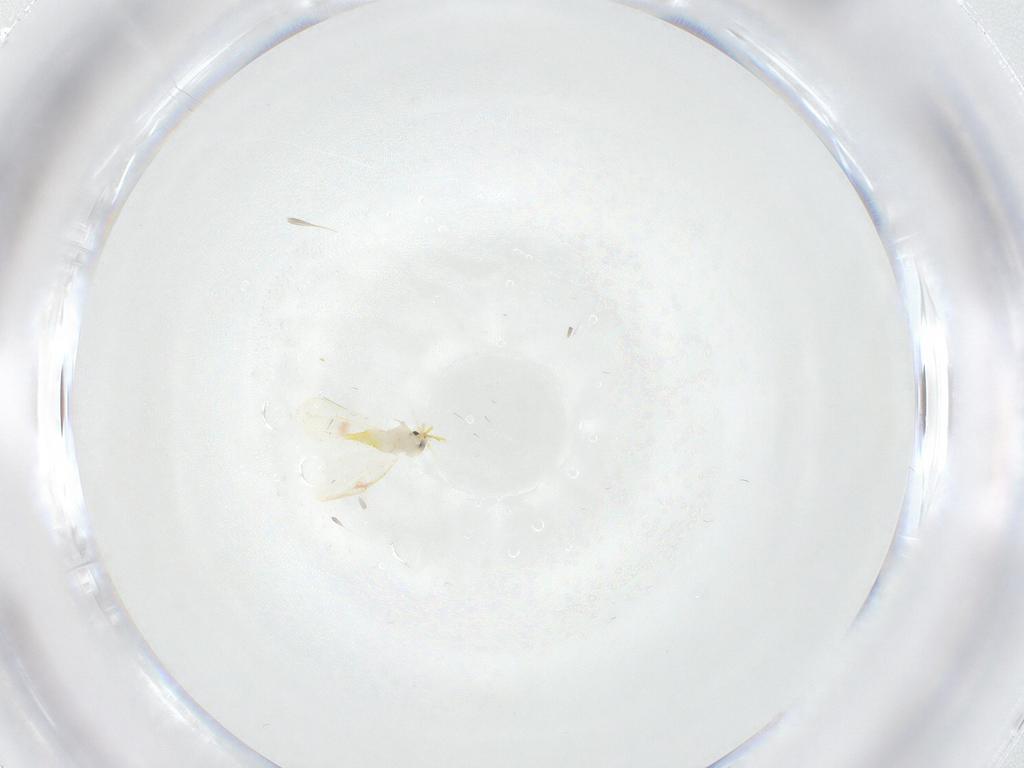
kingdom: Animalia
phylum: Arthropoda
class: Insecta
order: Hemiptera
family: Aleyrodidae
